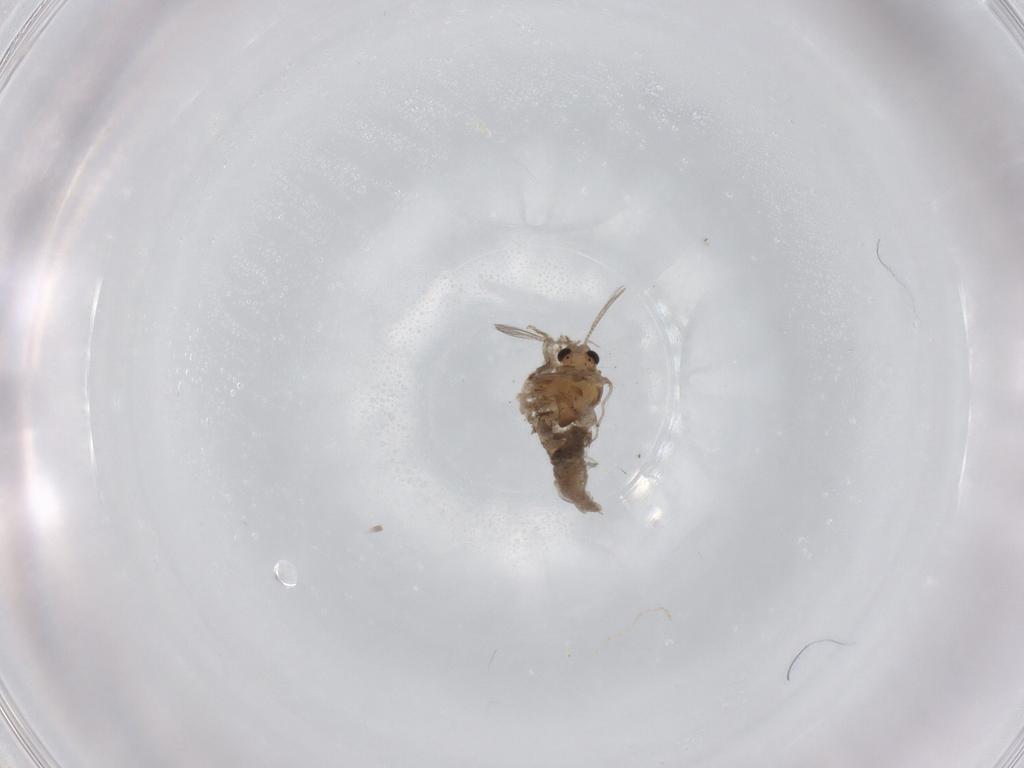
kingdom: Animalia
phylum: Arthropoda
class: Insecta
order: Diptera
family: Chironomidae
